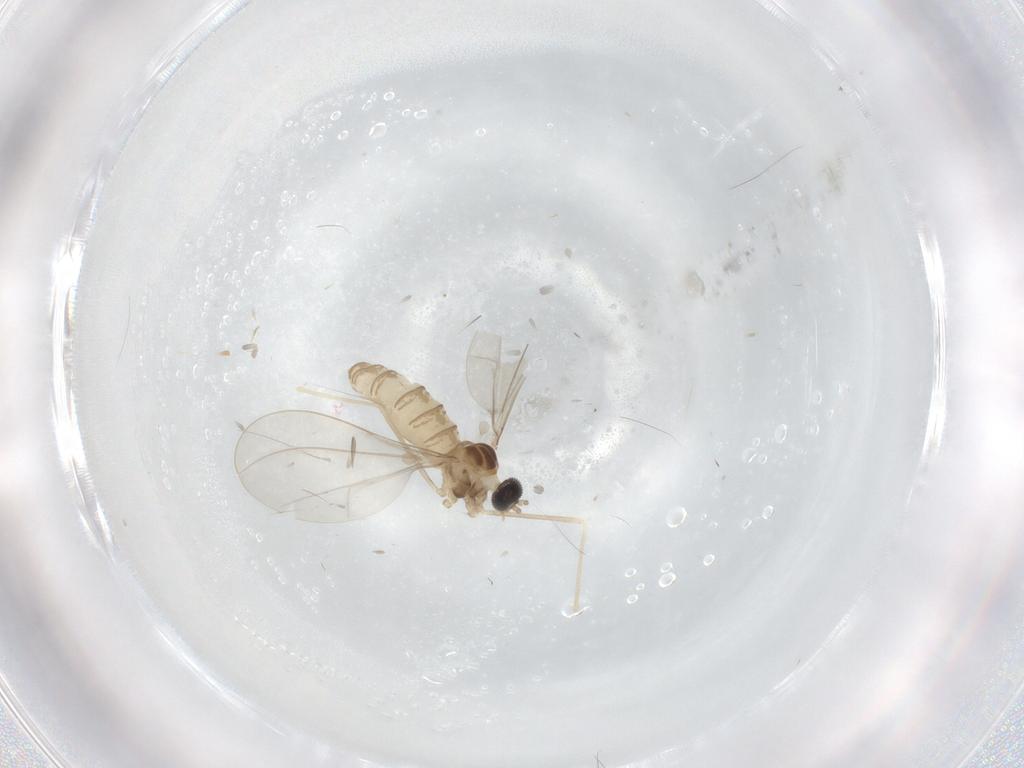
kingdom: Animalia
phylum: Arthropoda
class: Insecta
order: Diptera
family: Cecidomyiidae
